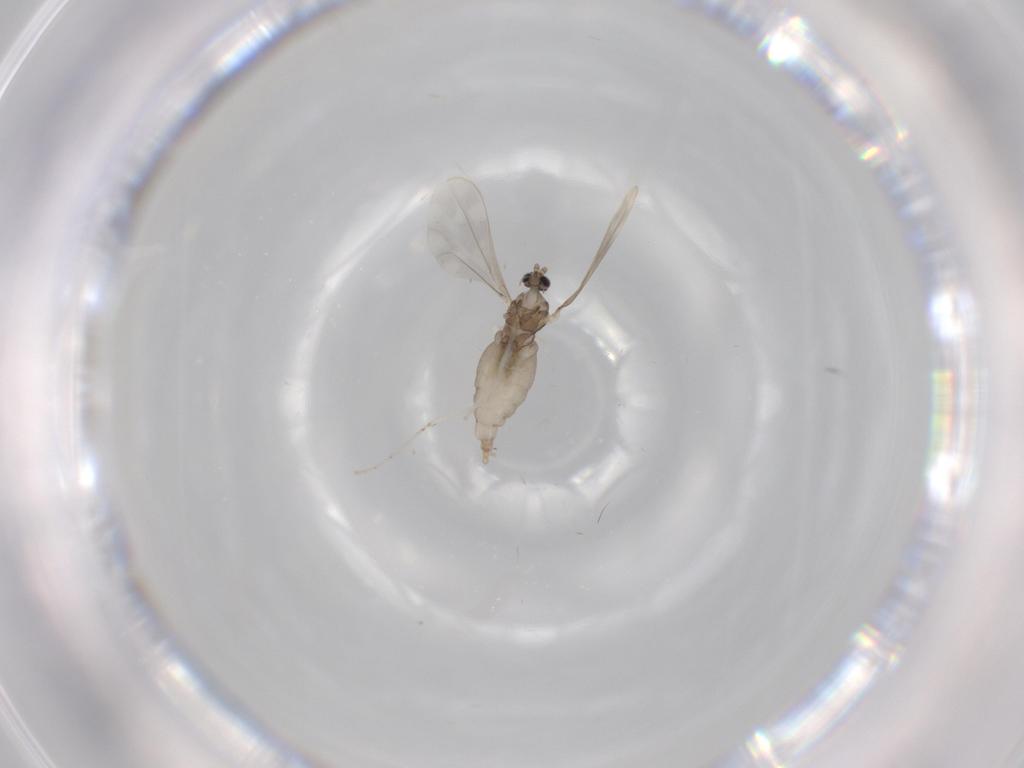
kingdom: Animalia
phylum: Arthropoda
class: Insecta
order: Diptera
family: Cecidomyiidae
